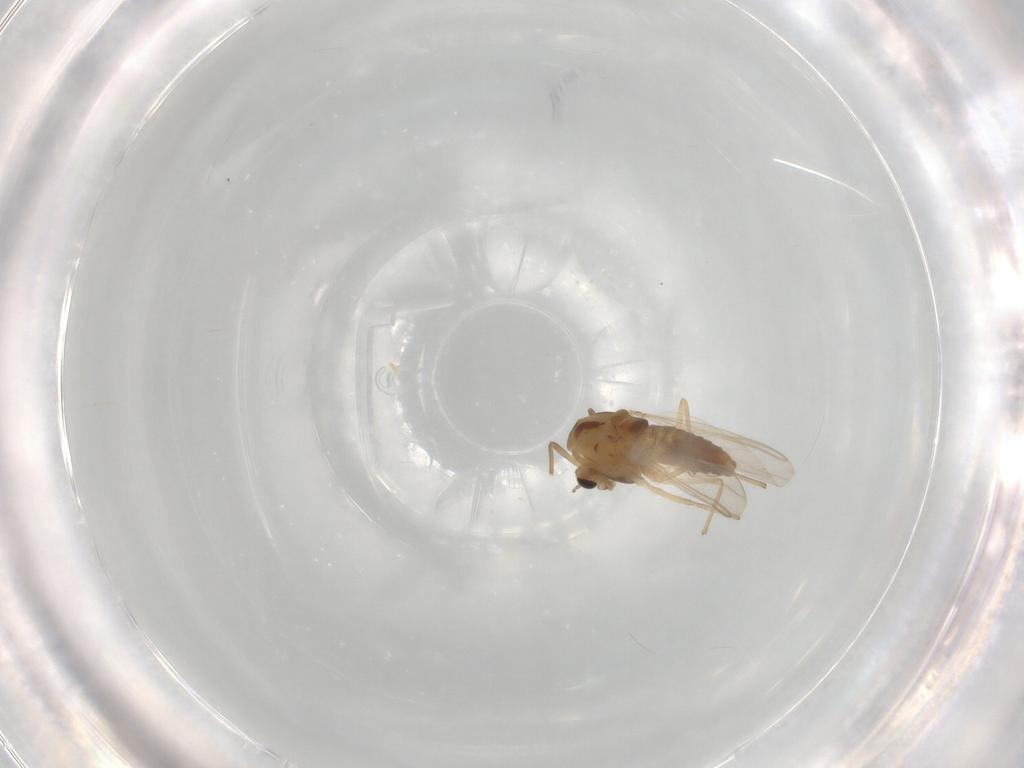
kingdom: Animalia
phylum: Arthropoda
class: Insecta
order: Diptera
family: Chironomidae
